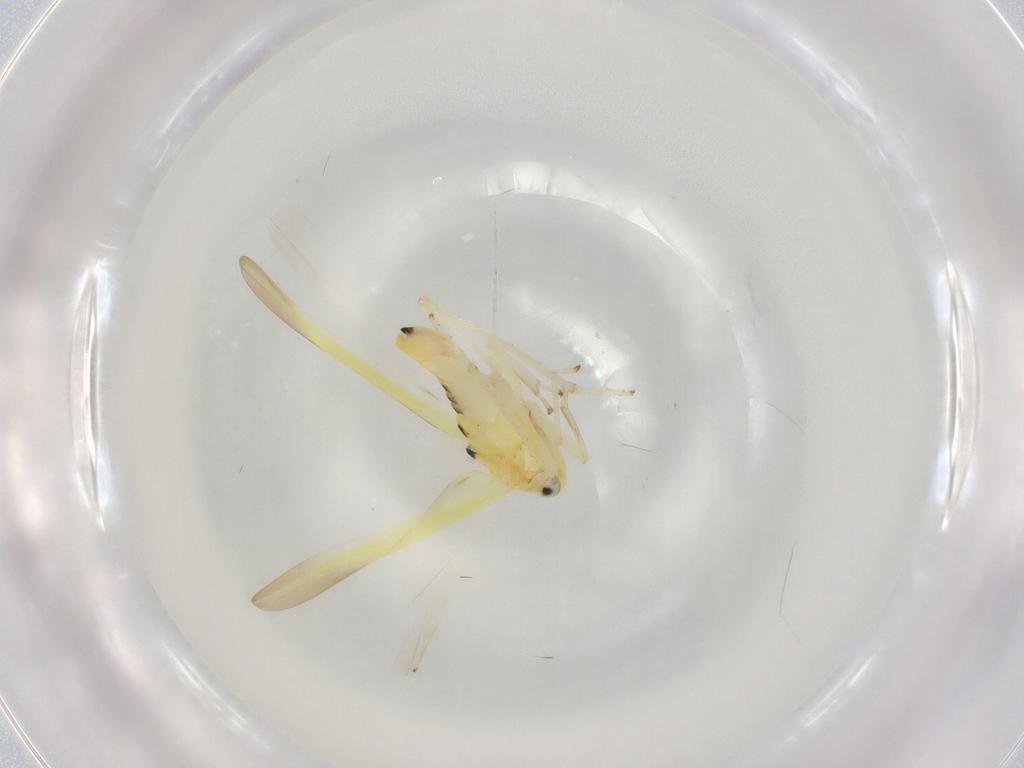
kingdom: Animalia
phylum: Arthropoda
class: Insecta
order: Hemiptera
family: Cicadellidae
